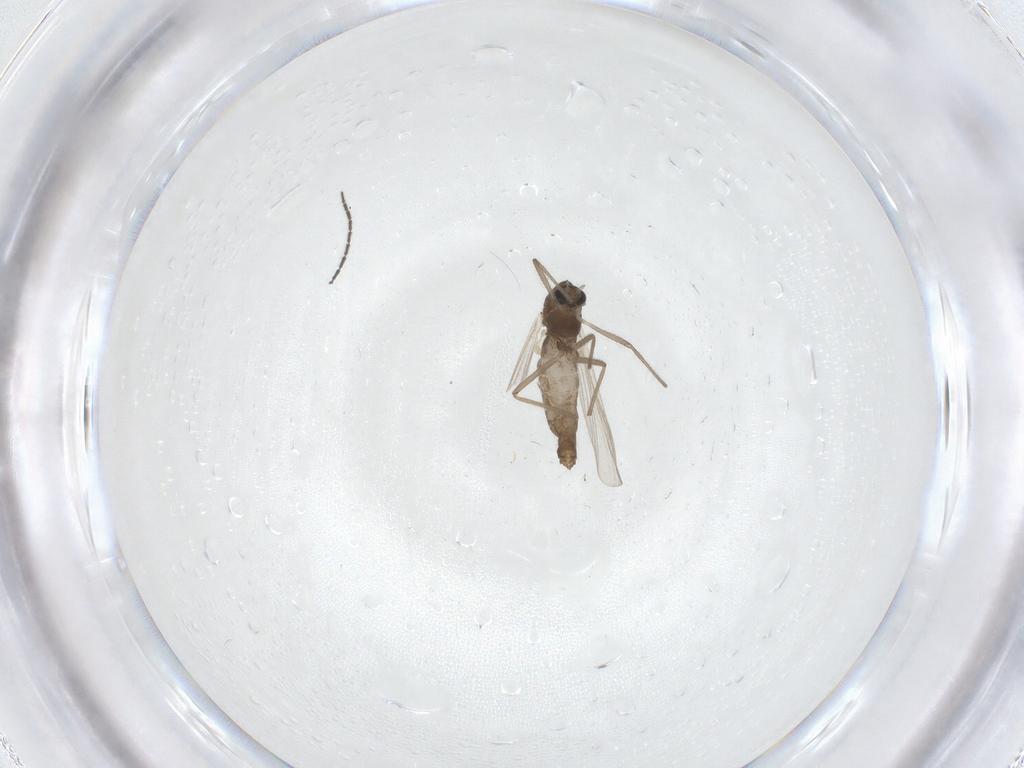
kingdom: Animalia
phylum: Arthropoda
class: Insecta
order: Diptera
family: Chironomidae
